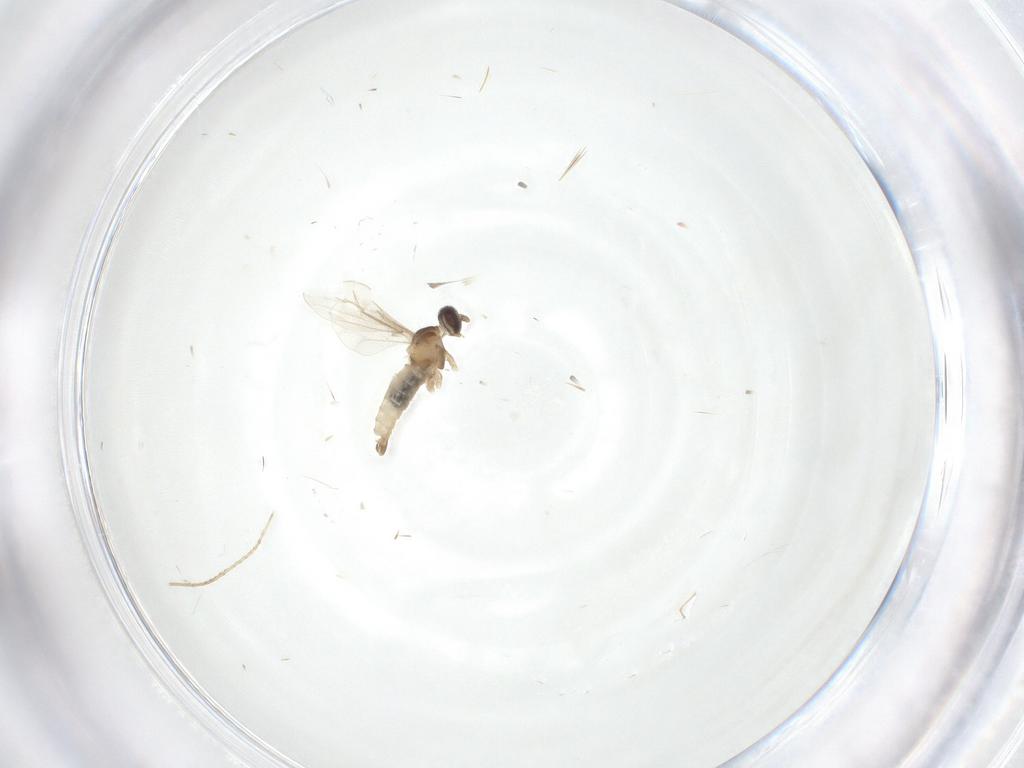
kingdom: Animalia
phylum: Arthropoda
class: Insecta
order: Diptera
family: Cecidomyiidae
